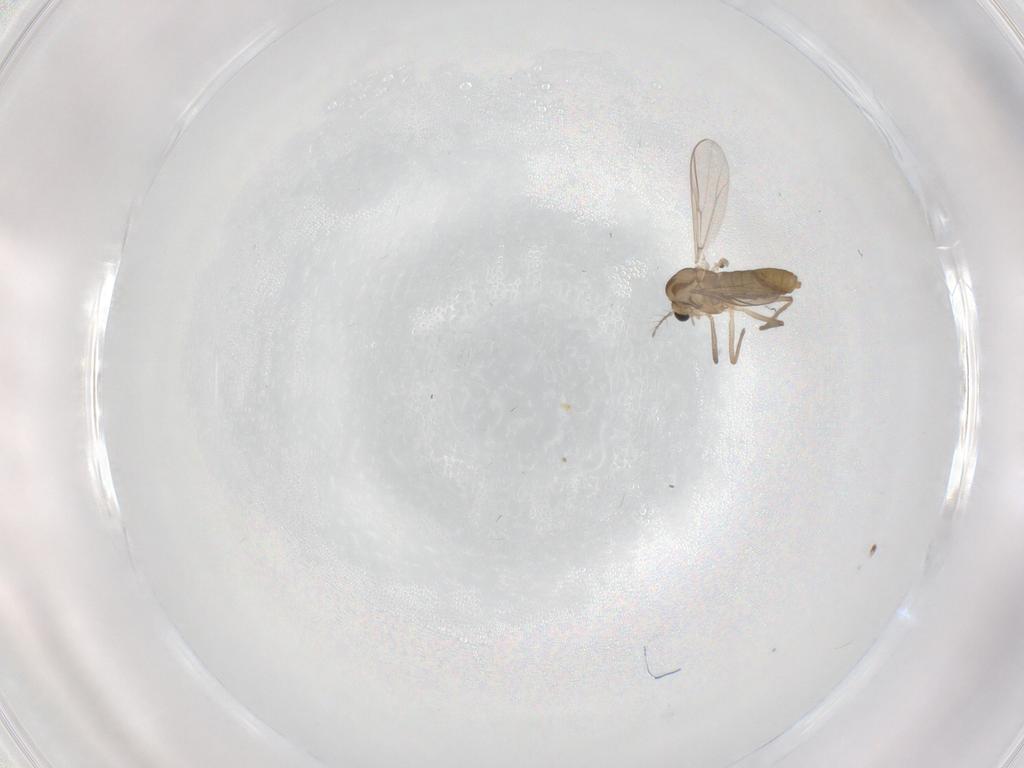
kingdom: Animalia
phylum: Arthropoda
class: Insecta
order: Diptera
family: Chironomidae
